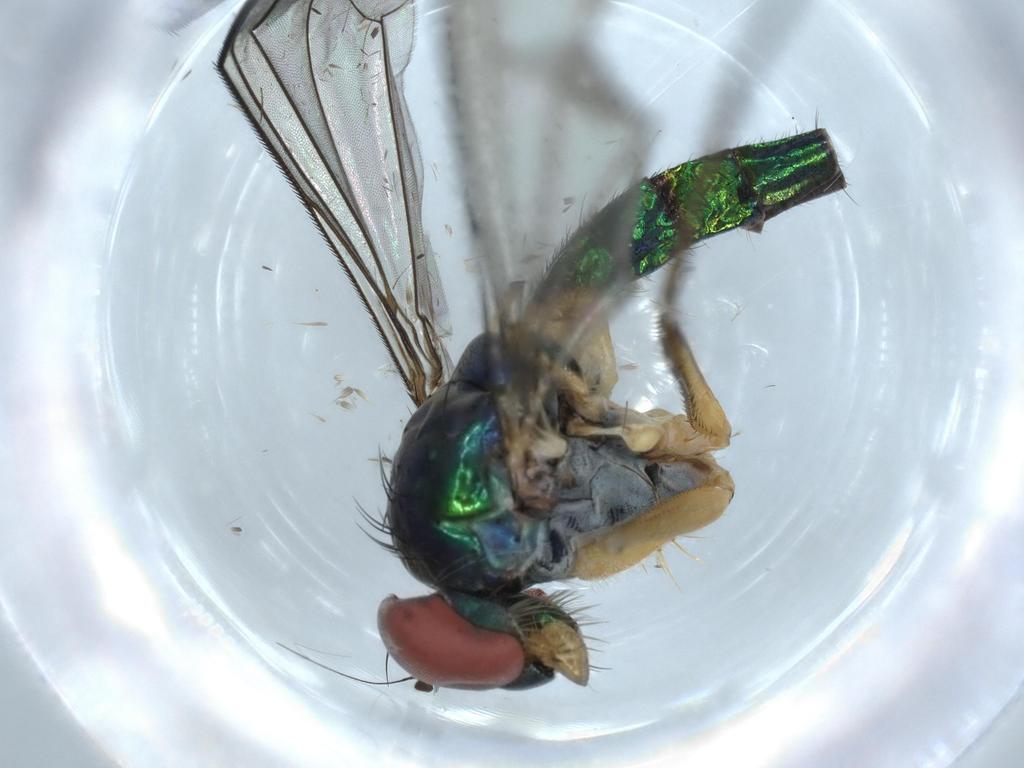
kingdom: Animalia
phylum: Arthropoda
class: Insecta
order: Diptera
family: Dolichopodidae
